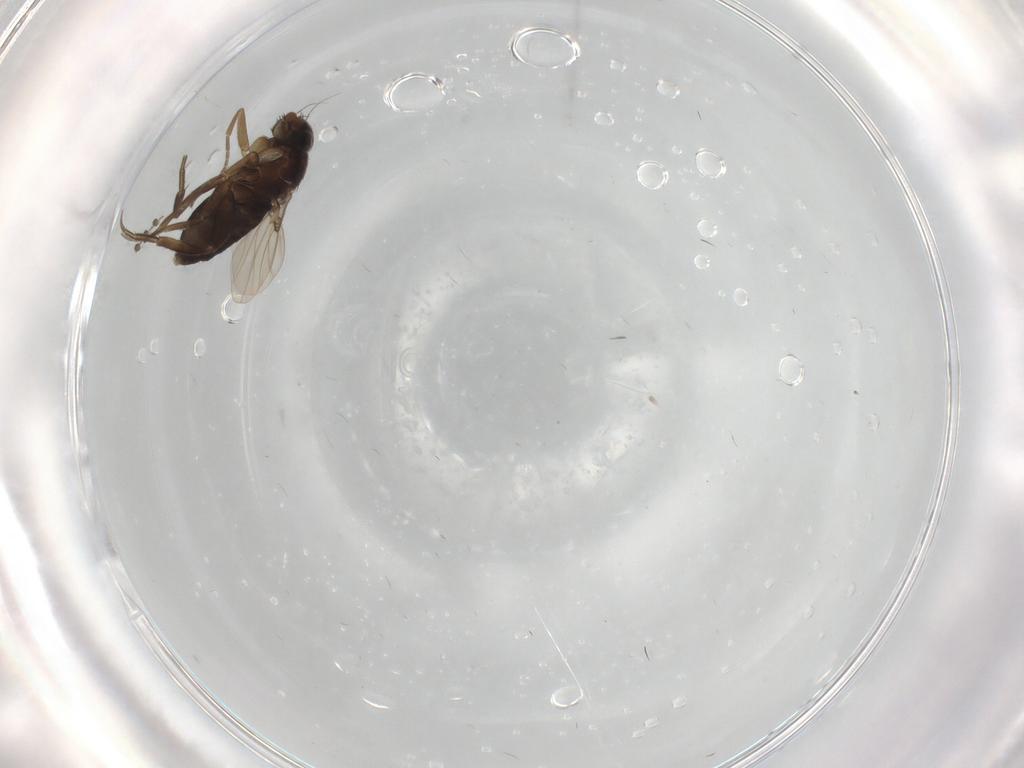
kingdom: Animalia
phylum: Arthropoda
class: Insecta
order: Diptera
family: Phoridae
